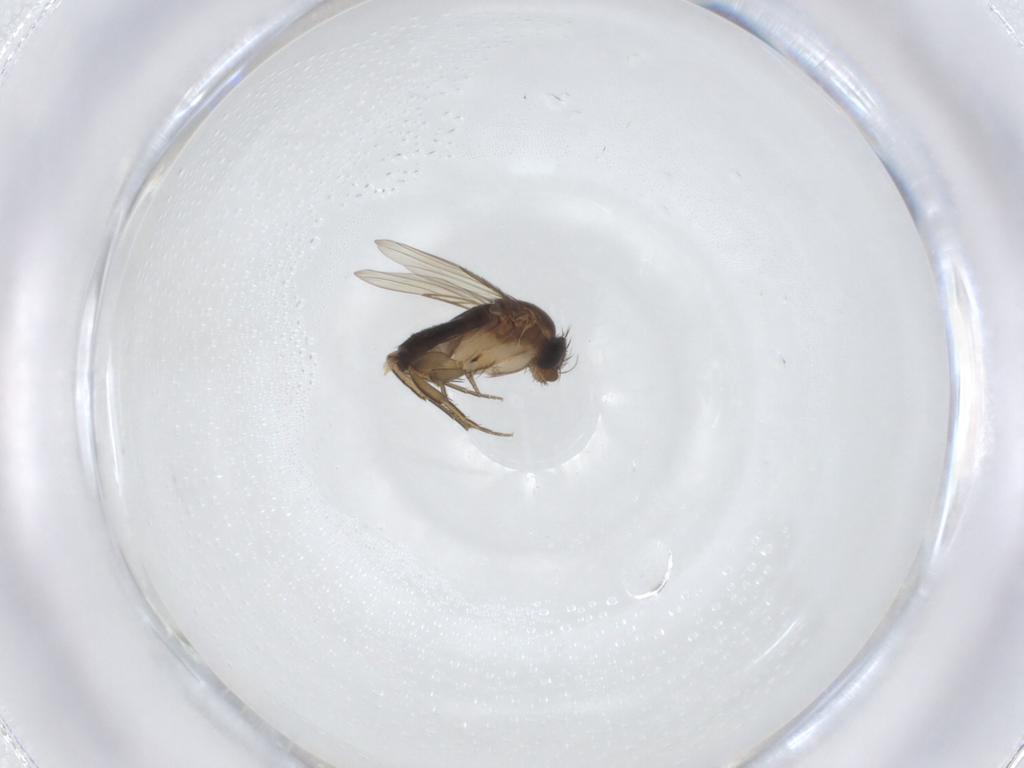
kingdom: Animalia
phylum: Arthropoda
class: Insecta
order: Diptera
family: Phoridae
